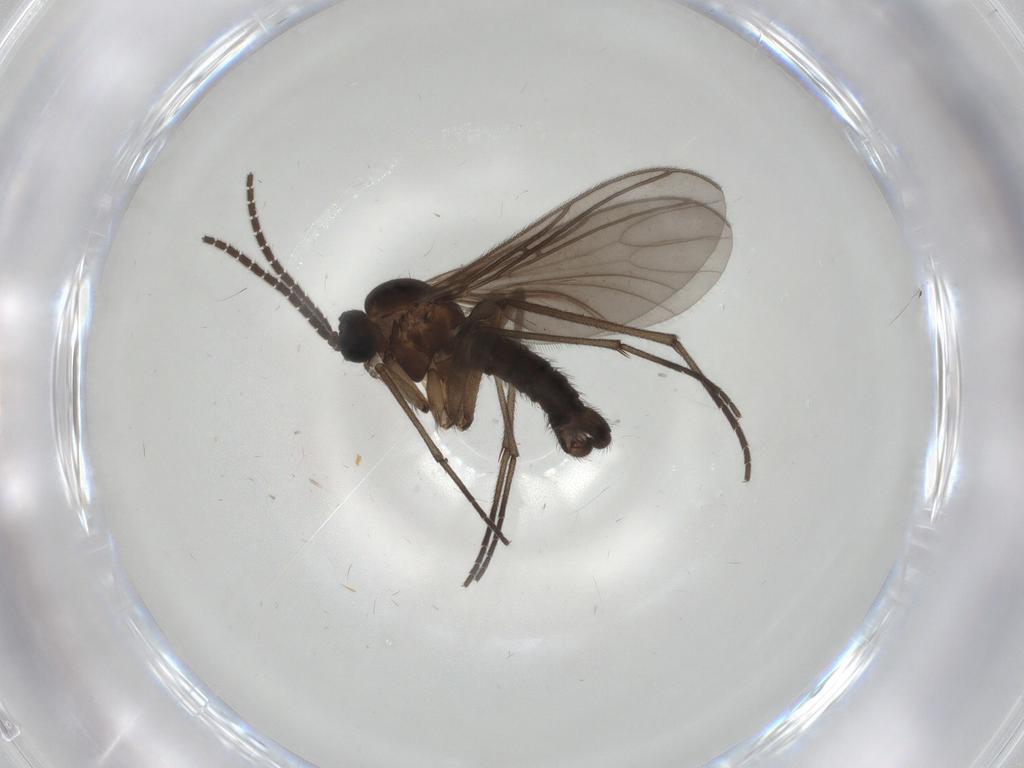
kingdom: Animalia
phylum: Arthropoda
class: Insecta
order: Diptera
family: Sciaridae
